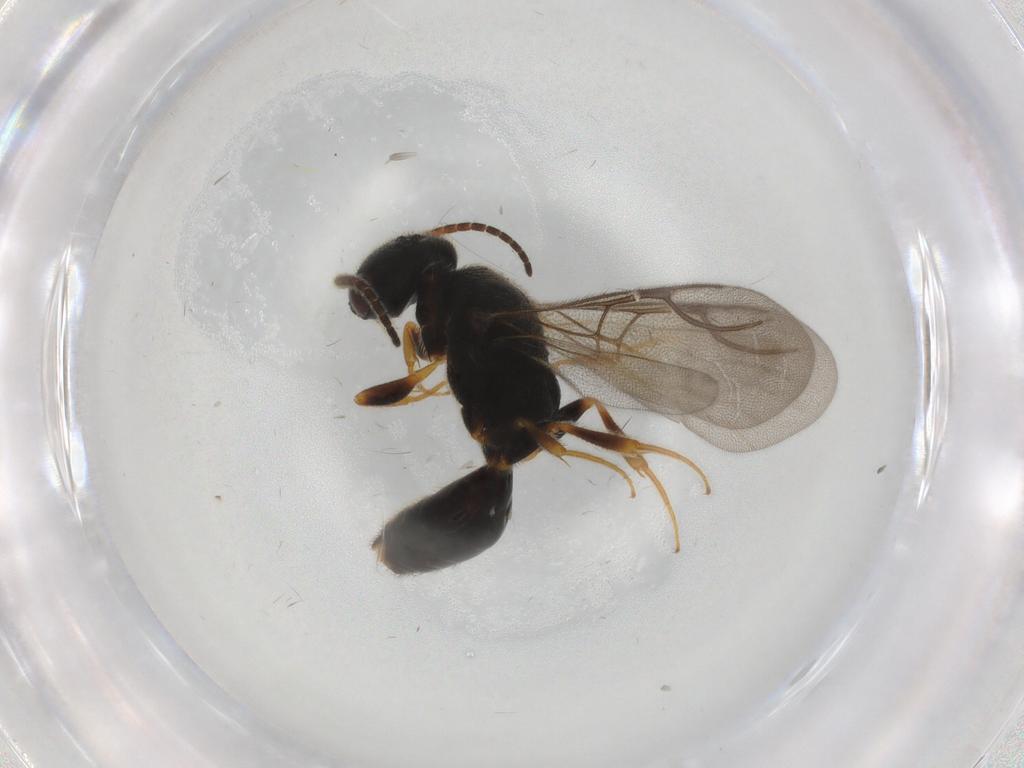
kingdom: Animalia
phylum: Arthropoda
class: Insecta
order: Hymenoptera
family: Bethylidae
